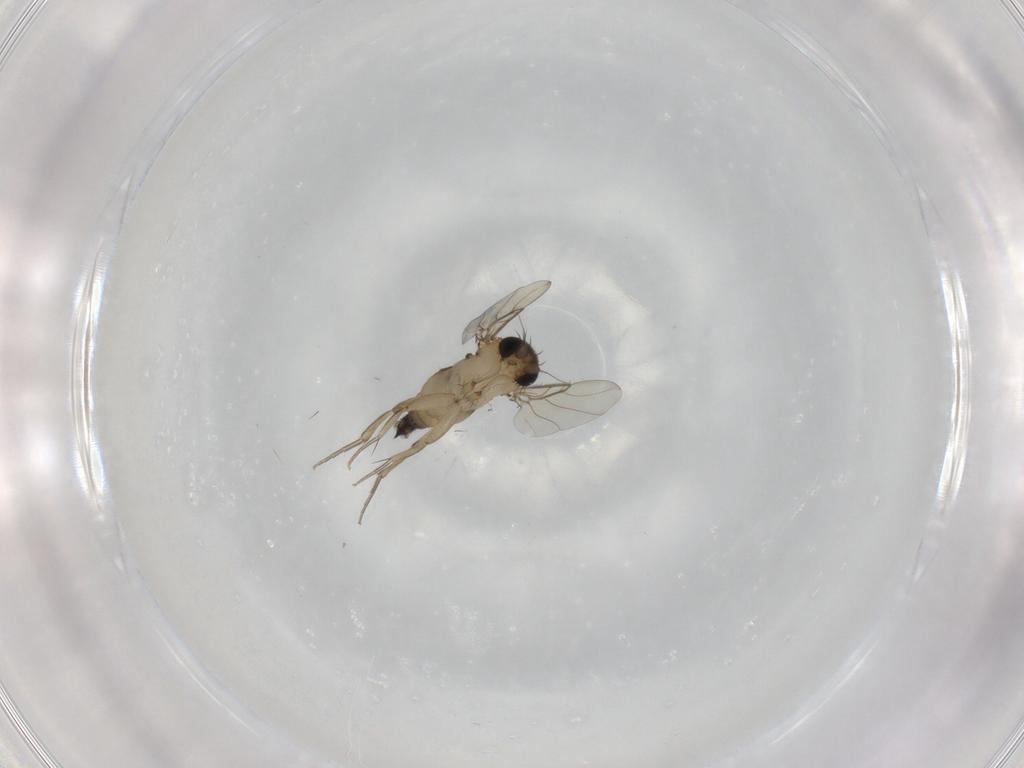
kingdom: Animalia
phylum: Arthropoda
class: Insecta
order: Diptera
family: Phoridae
